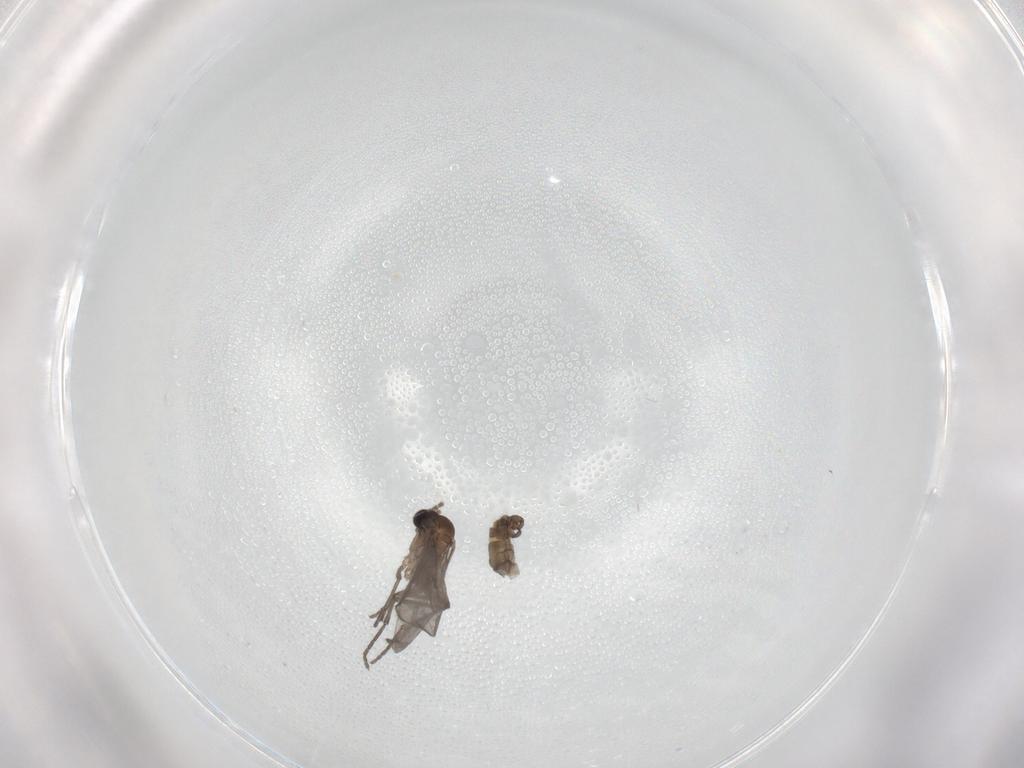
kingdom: Animalia
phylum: Arthropoda
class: Insecta
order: Diptera
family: Sciaridae
